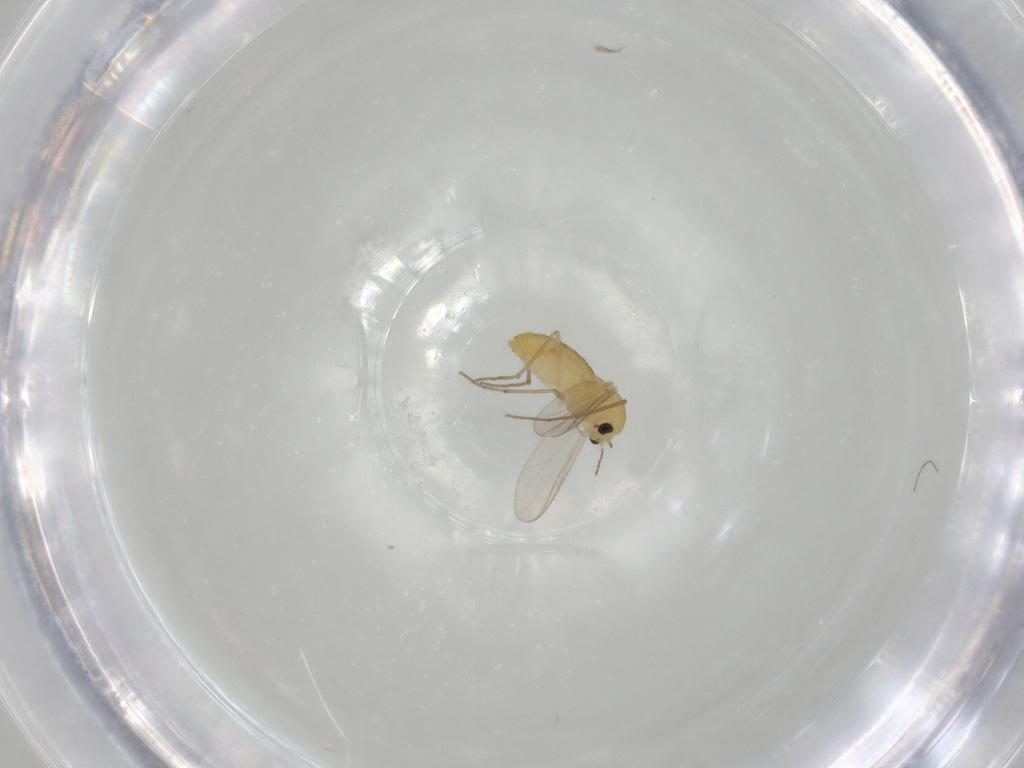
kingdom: Animalia
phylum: Arthropoda
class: Insecta
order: Diptera
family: Chironomidae
